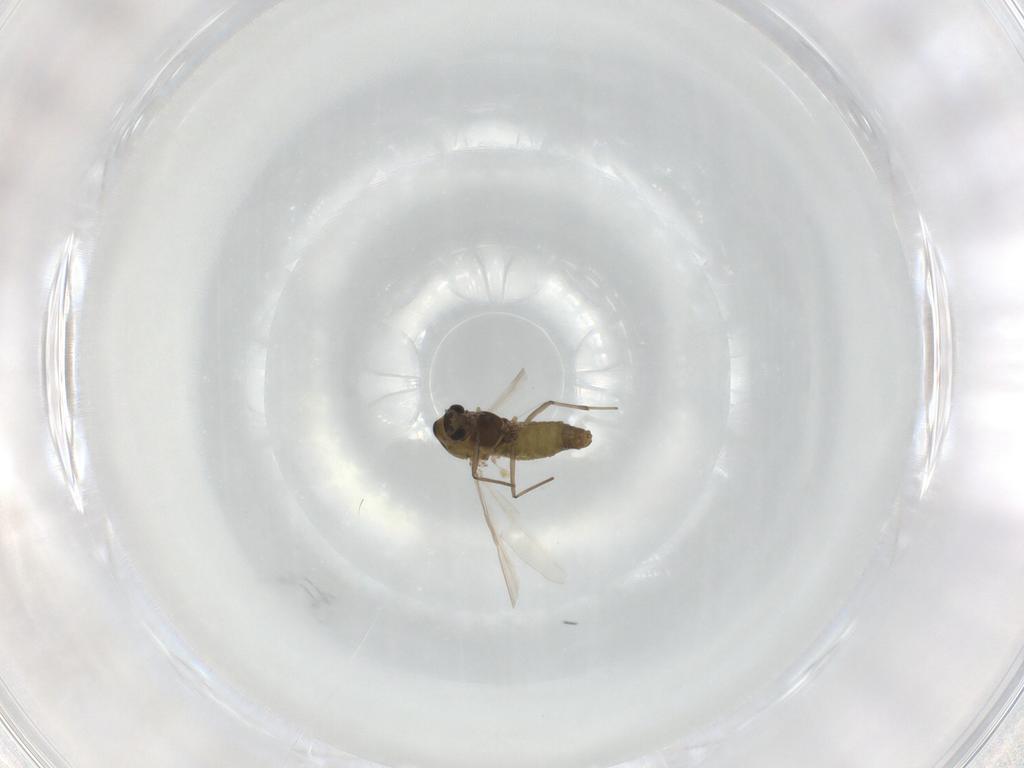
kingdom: Animalia
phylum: Arthropoda
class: Insecta
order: Diptera
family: Chironomidae
